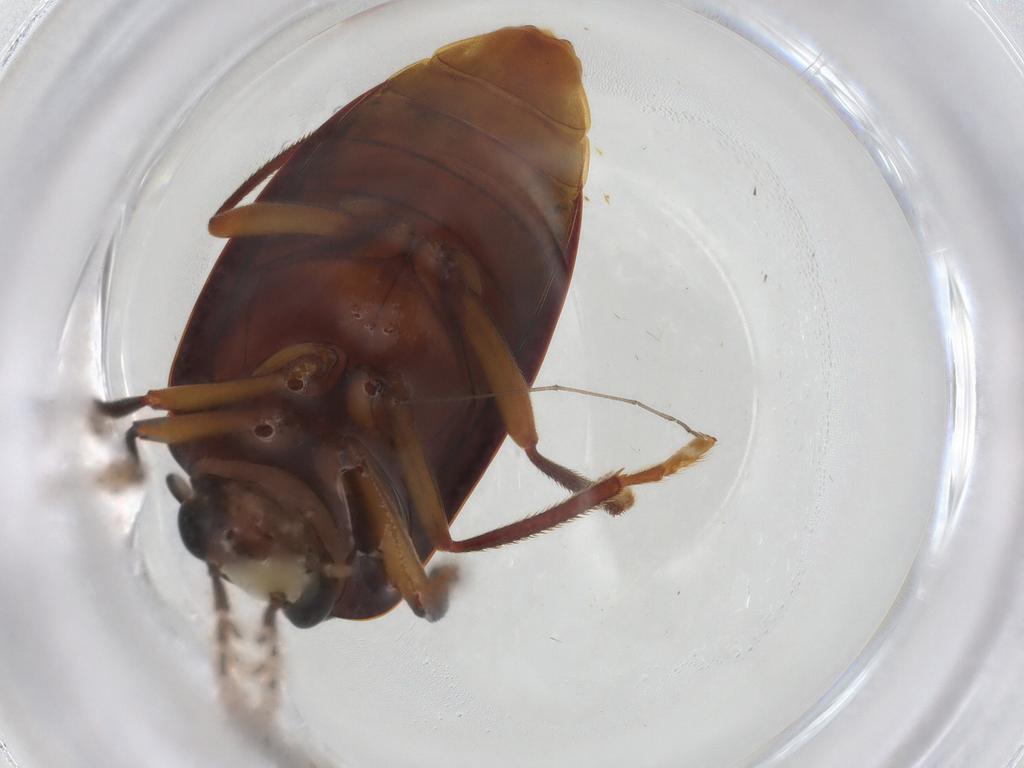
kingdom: Animalia
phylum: Arthropoda
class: Insecta
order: Coleoptera
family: Ptilodactylidae
